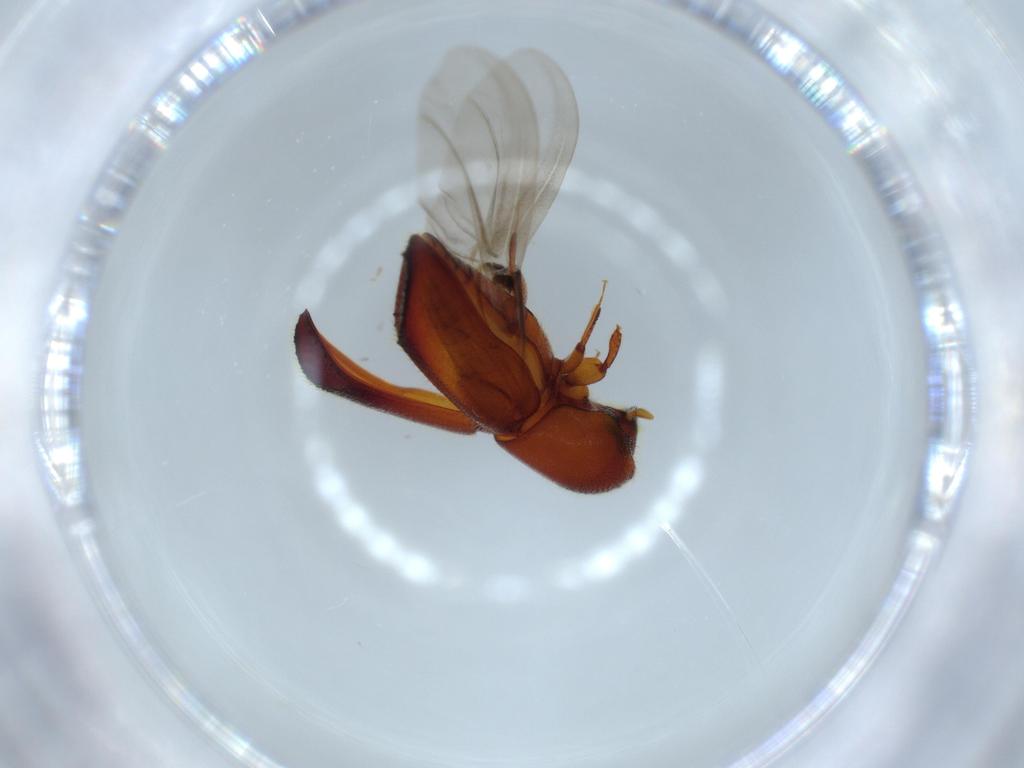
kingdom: Animalia
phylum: Arthropoda
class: Insecta
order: Coleoptera
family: Curculionidae
